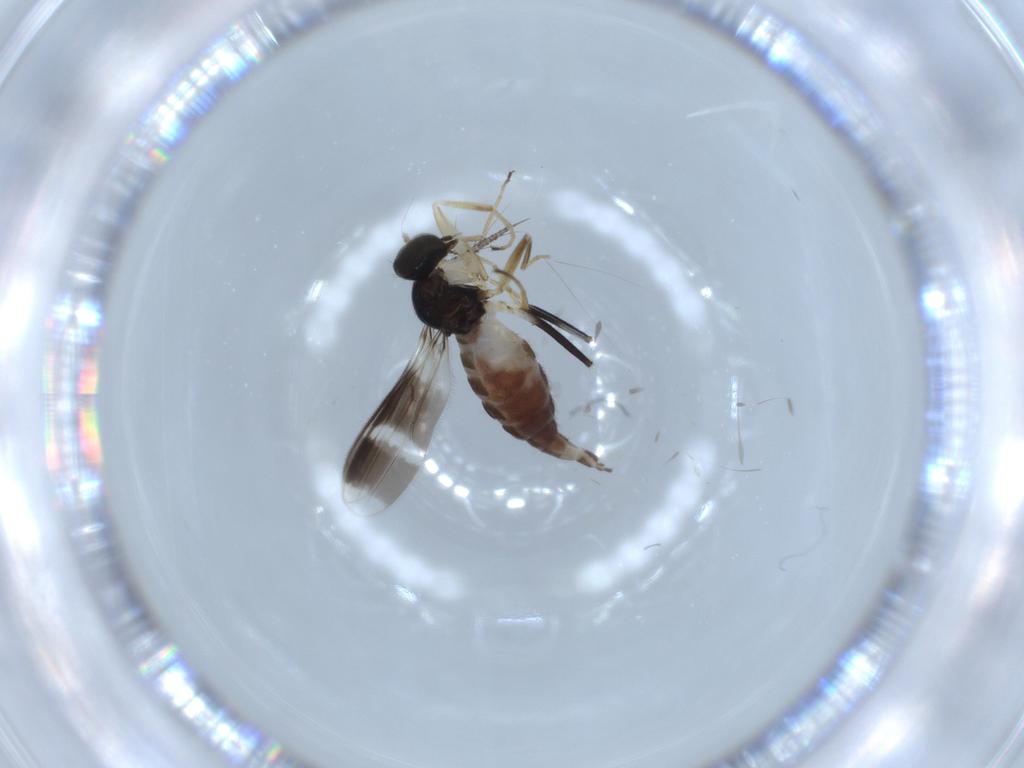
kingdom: Animalia
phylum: Arthropoda
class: Insecta
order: Diptera
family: Hybotidae
